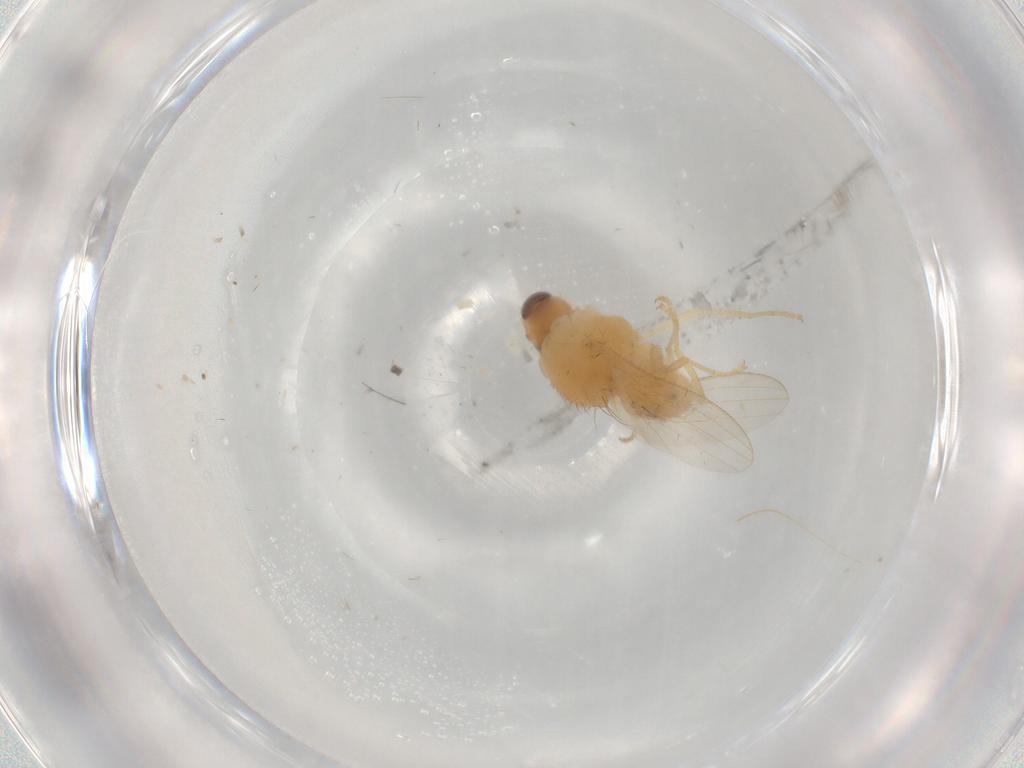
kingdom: Animalia
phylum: Arthropoda
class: Insecta
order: Diptera
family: Chyromyidae
